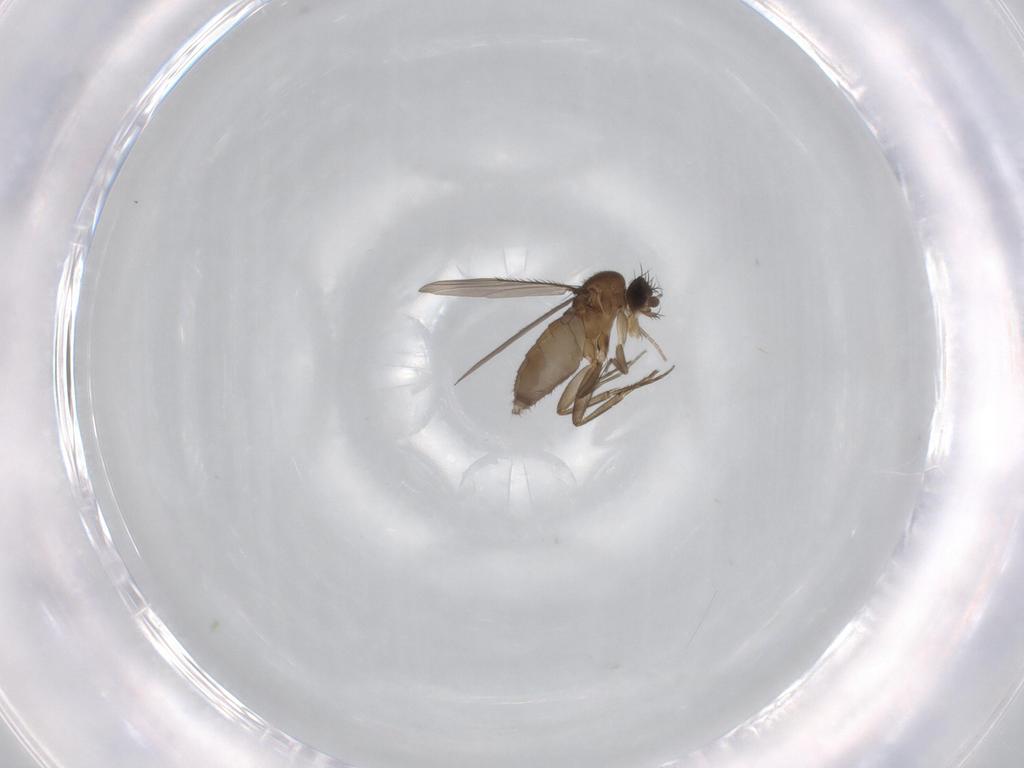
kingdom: Animalia
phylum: Arthropoda
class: Insecta
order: Diptera
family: Phoridae
